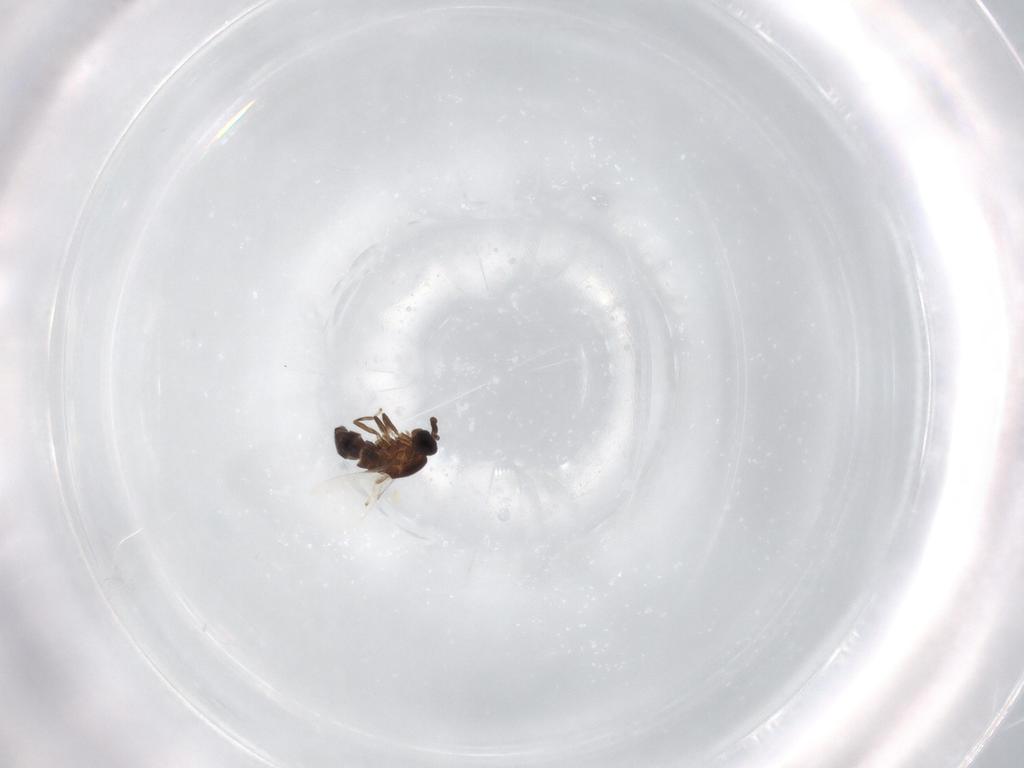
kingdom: Animalia
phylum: Arthropoda
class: Insecta
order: Diptera
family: Scatopsidae
